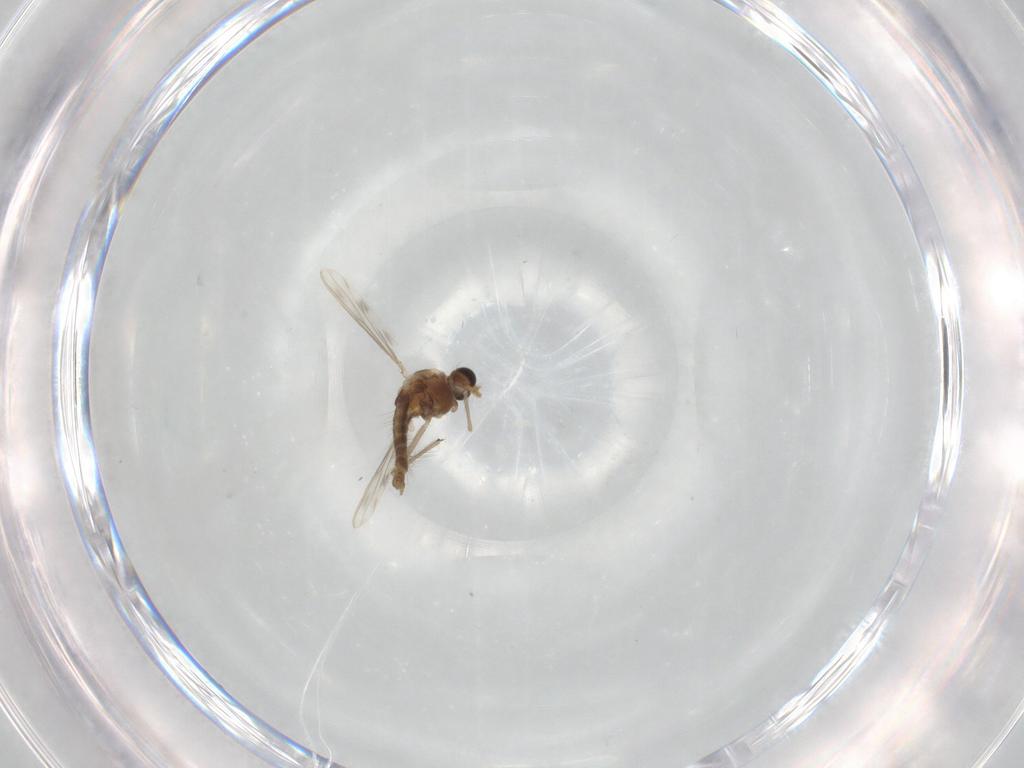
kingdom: Animalia
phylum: Arthropoda
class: Insecta
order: Diptera
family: Chironomidae
